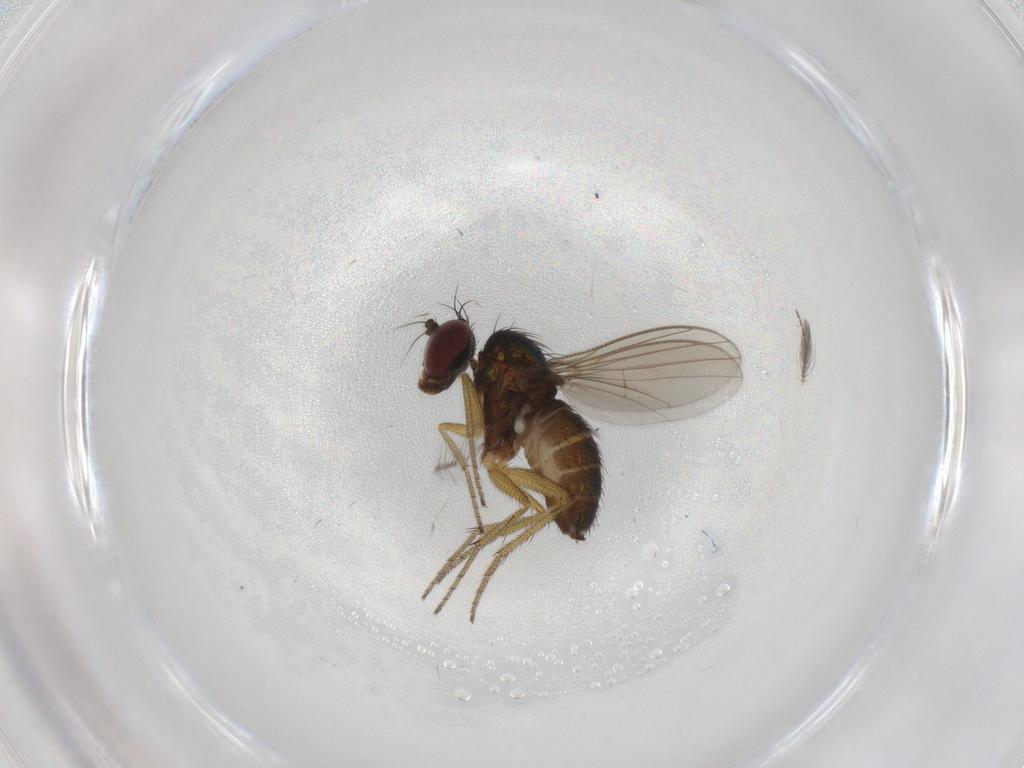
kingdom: Animalia
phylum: Arthropoda
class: Insecta
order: Diptera
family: Chironomidae
